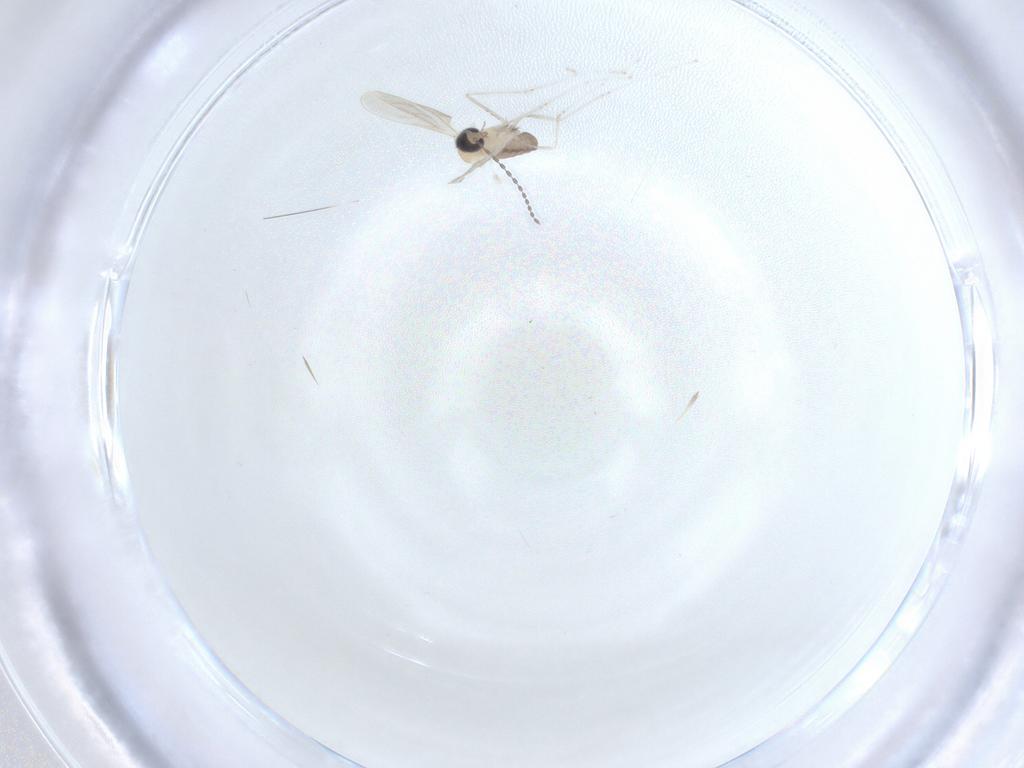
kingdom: Animalia
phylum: Arthropoda
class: Insecta
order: Diptera
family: Cecidomyiidae
